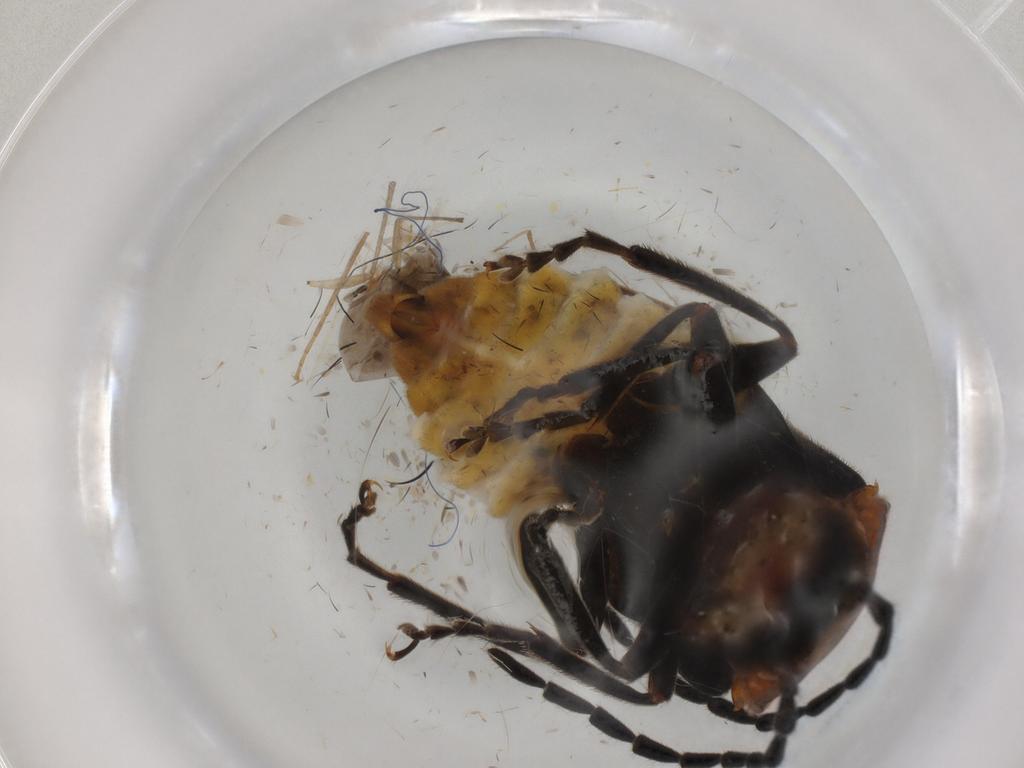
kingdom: Animalia
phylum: Arthropoda
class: Insecta
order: Coleoptera
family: Cantharidae
